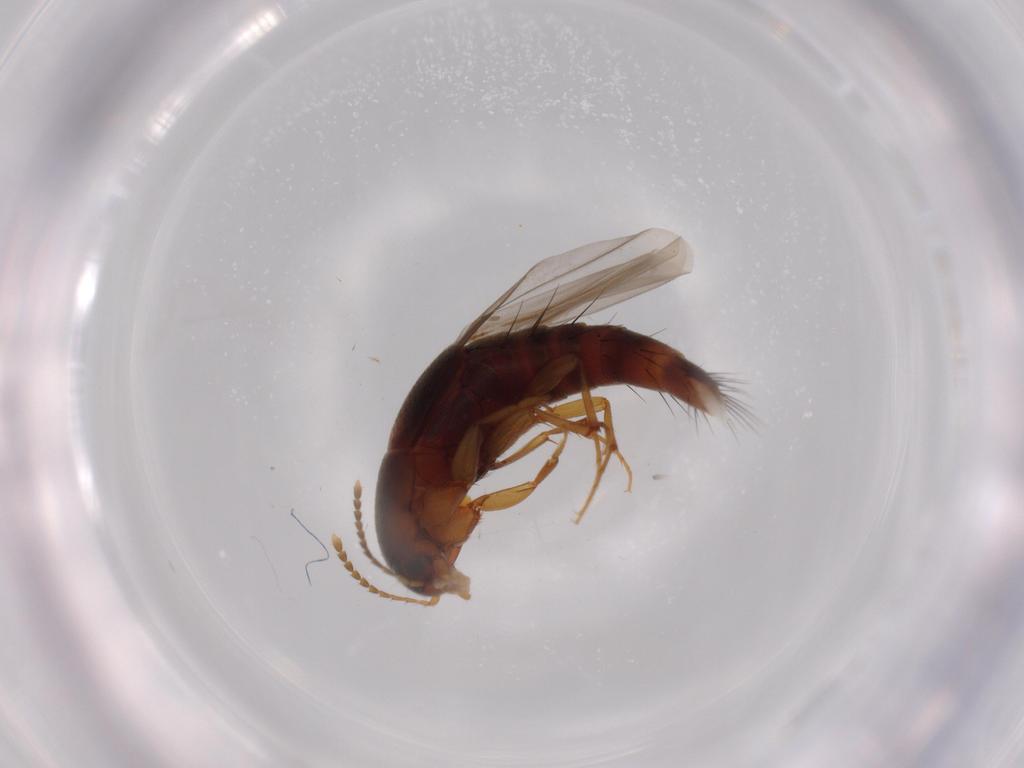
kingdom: Animalia
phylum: Arthropoda
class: Insecta
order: Coleoptera
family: Staphylinidae
